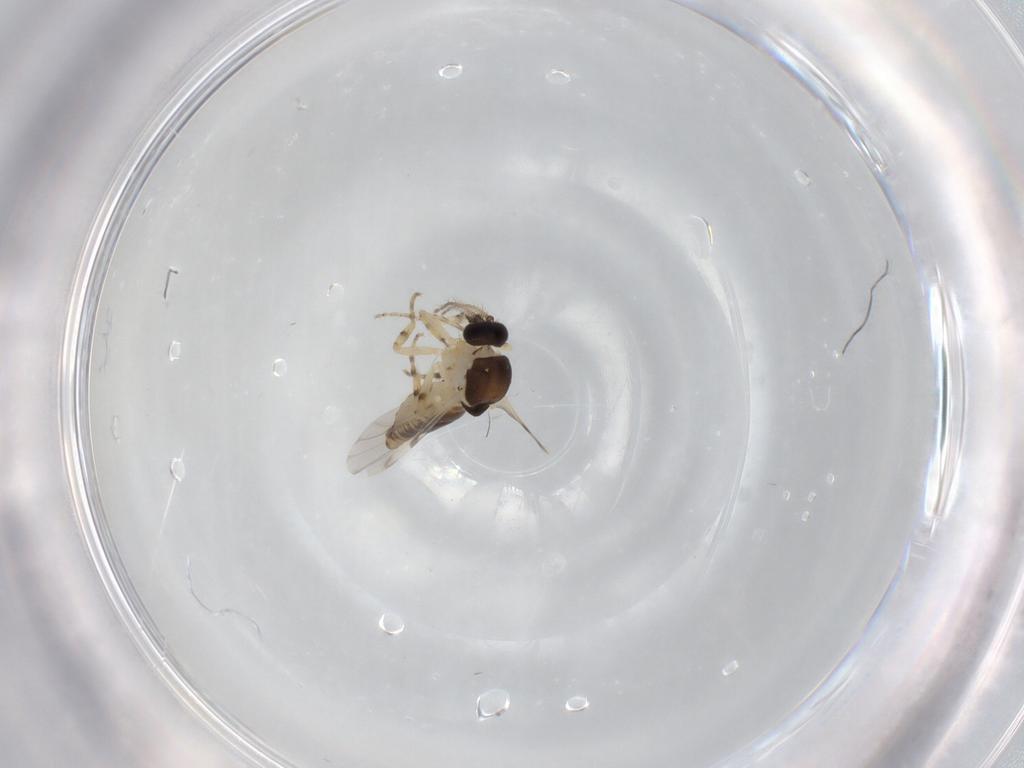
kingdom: Animalia
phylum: Arthropoda
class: Insecta
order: Diptera
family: Ceratopogonidae
